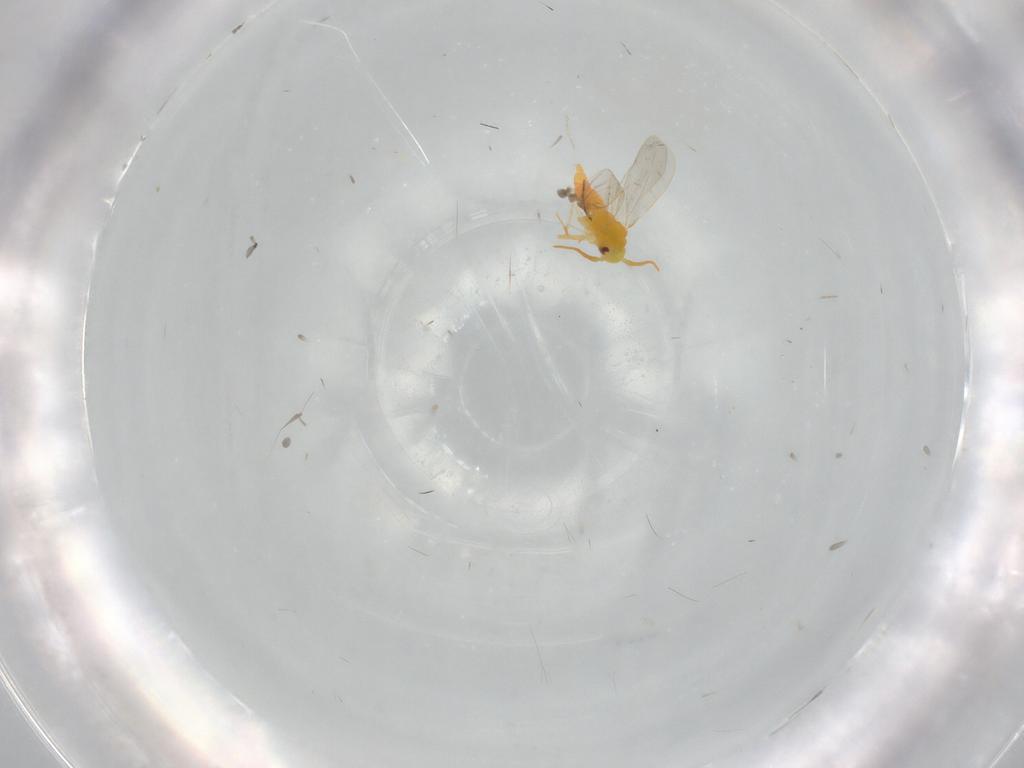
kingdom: Animalia
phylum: Arthropoda
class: Insecta
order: Hemiptera
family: Aleyrodidae
